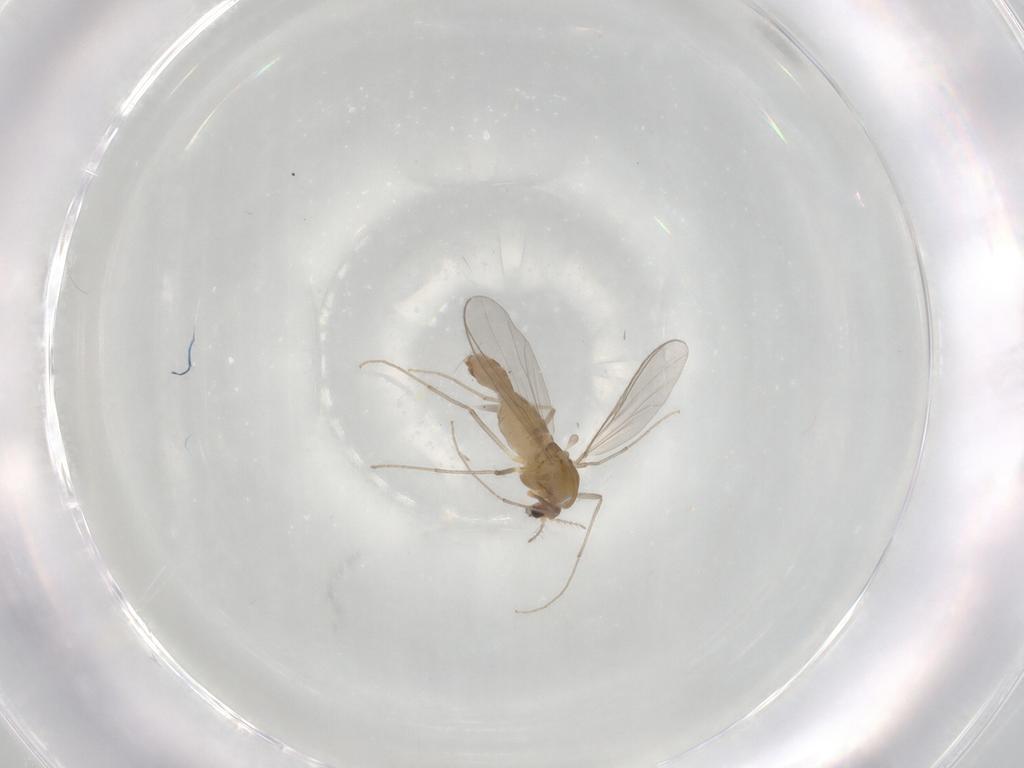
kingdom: Animalia
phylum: Arthropoda
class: Insecta
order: Diptera
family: Chironomidae
